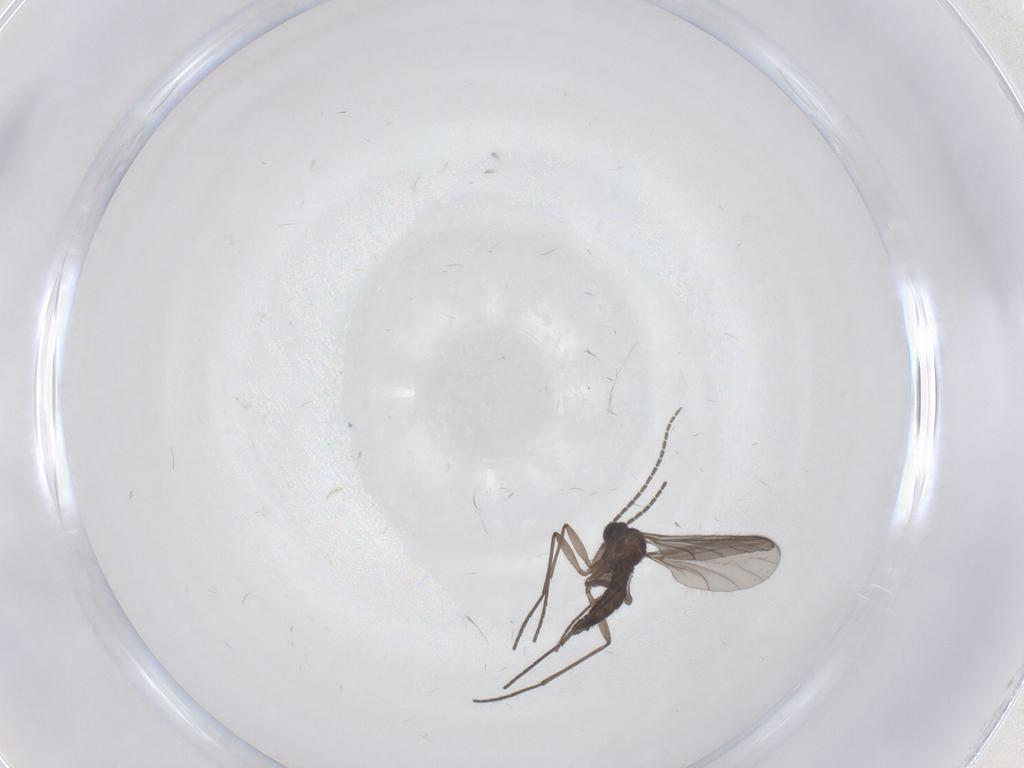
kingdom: Animalia
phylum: Arthropoda
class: Insecta
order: Diptera
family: Sciaridae
